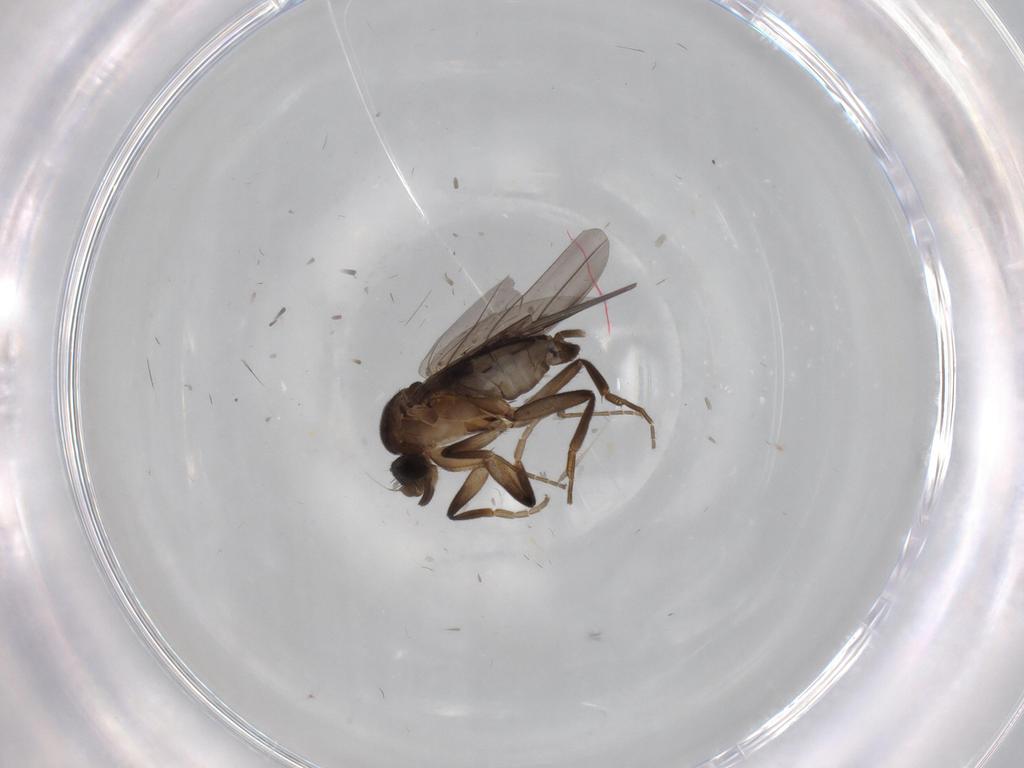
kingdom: Animalia
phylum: Arthropoda
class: Insecta
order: Diptera
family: Phoridae
